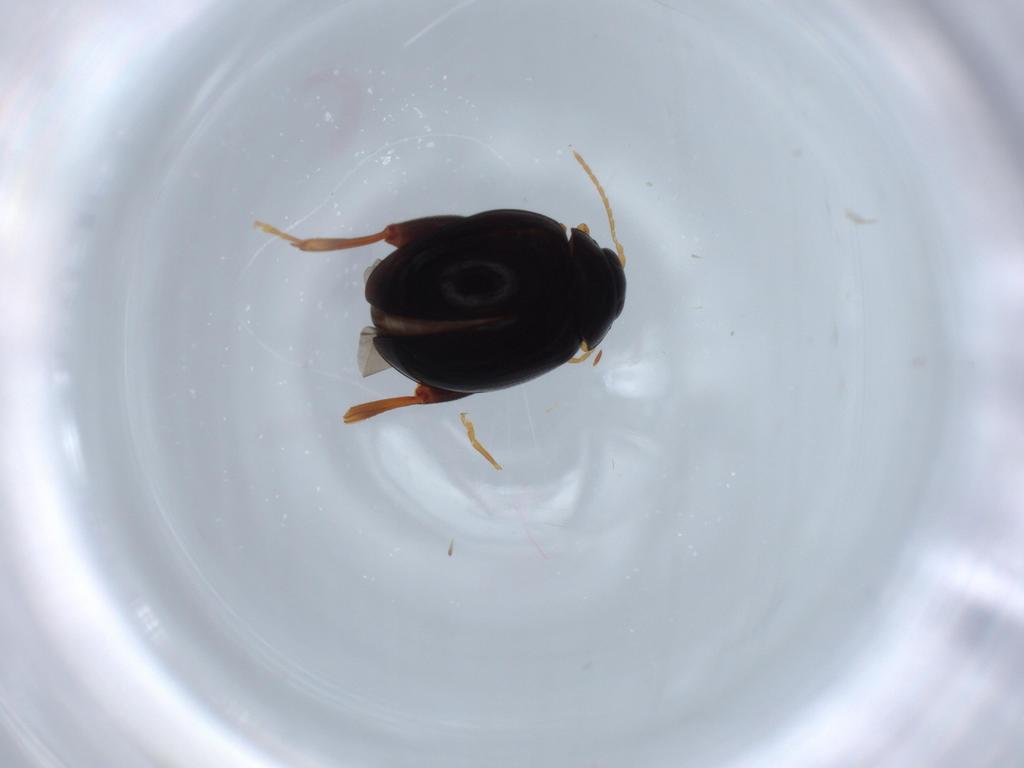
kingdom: Animalia
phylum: Arthropoda
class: Insecta
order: Coleoptera
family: Chrysomelidae
